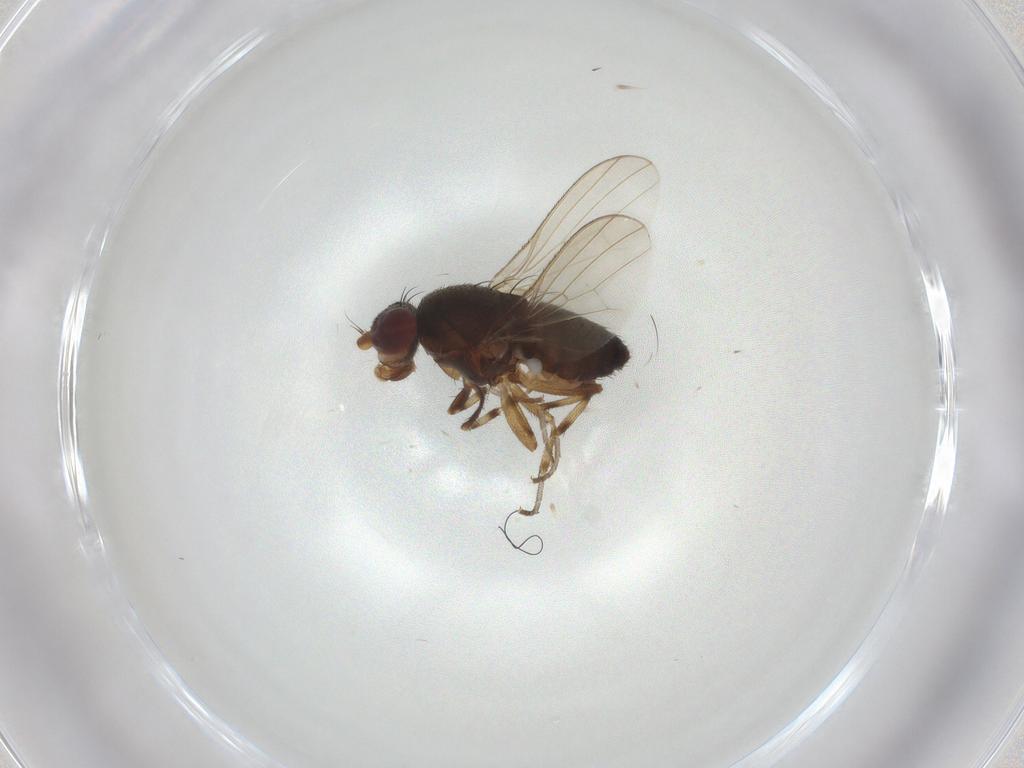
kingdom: Animalia
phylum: Arthropoda
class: Insecta
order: Diptera
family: Heleomyzidae
